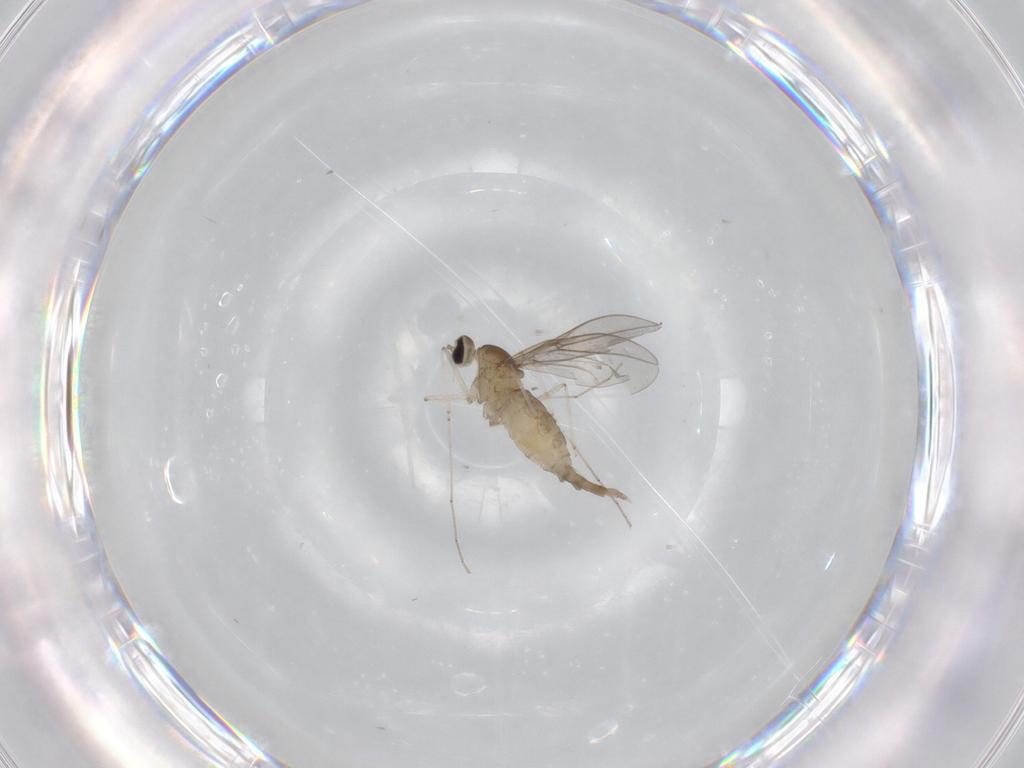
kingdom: Animalia
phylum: Arthropoda
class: Insecta
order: Diptera
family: Cecidomyiidae
